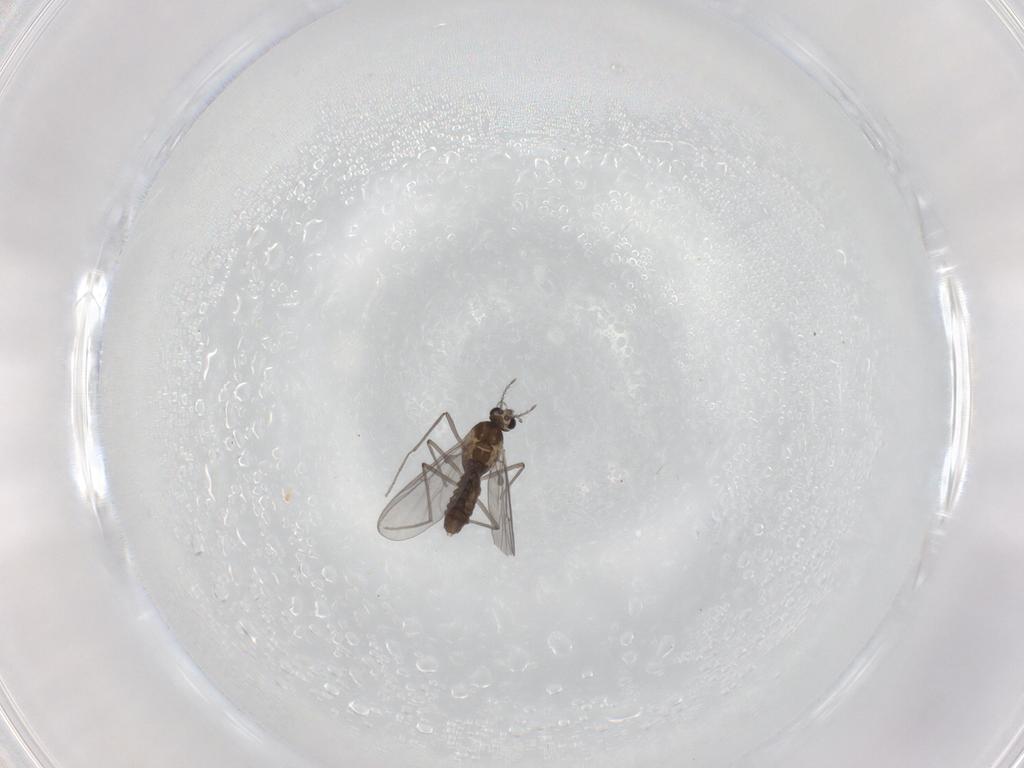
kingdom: Animalia
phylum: Arthropoda
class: Insecta
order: Diptera
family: Chironomidae
